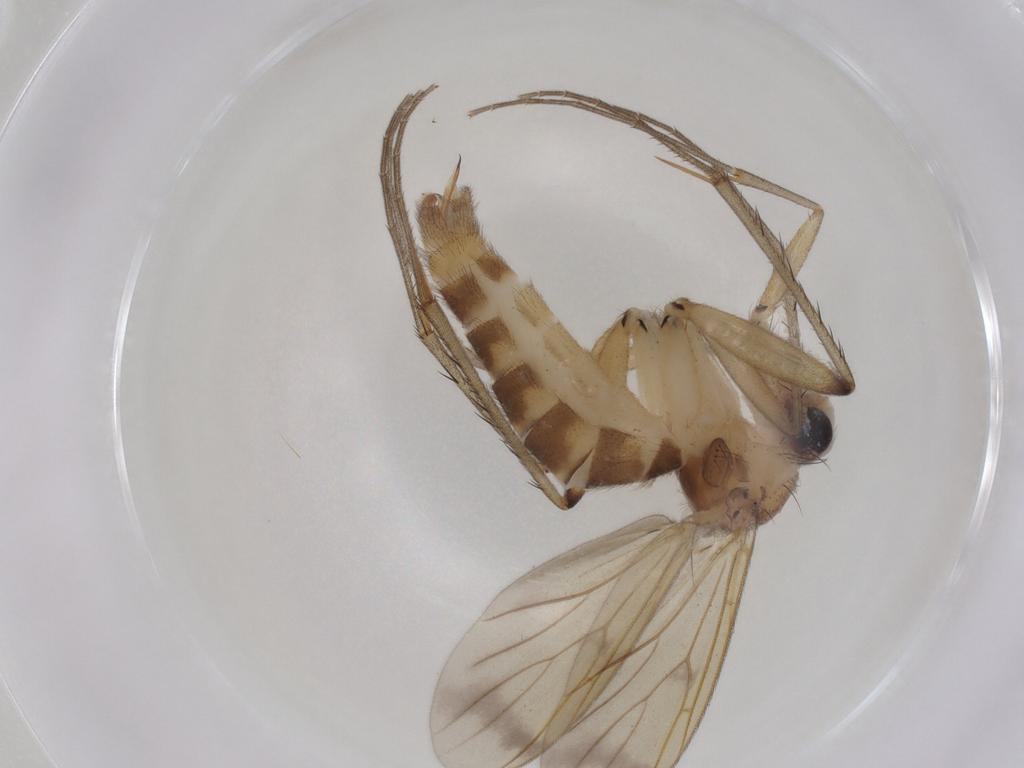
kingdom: Animalia
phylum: Arthropoda
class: Insecta
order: Diptera
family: Mycetophilidae
